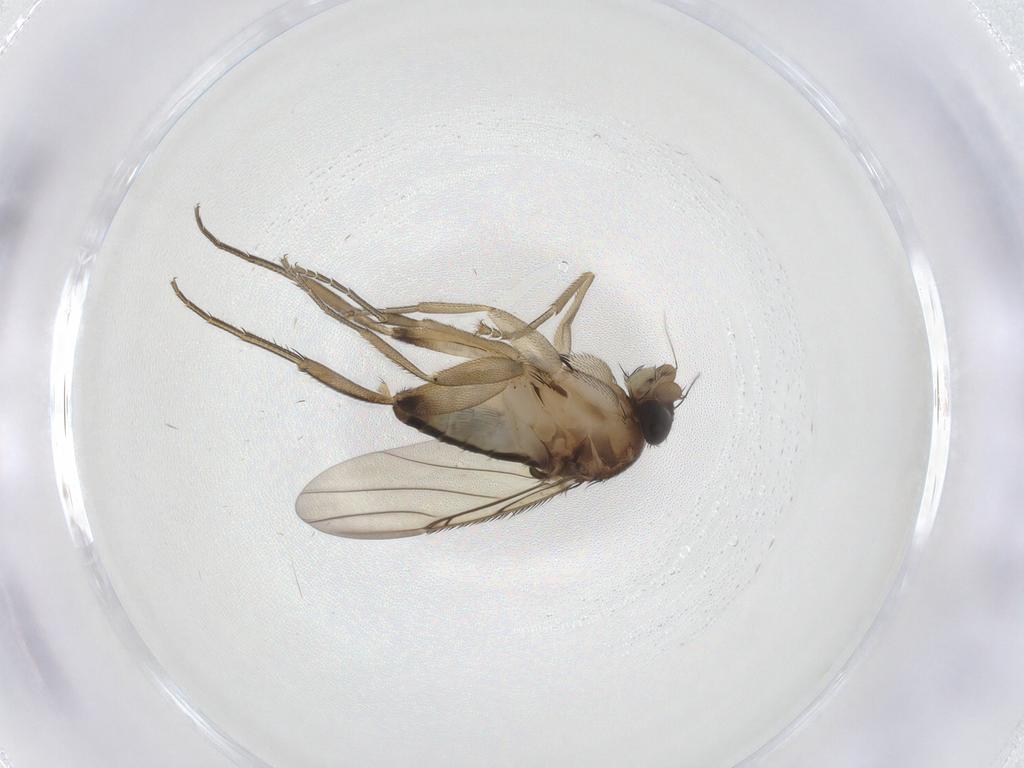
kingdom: Animalia
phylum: Arthropoda
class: Insecta
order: Diptera
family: Phoridae
